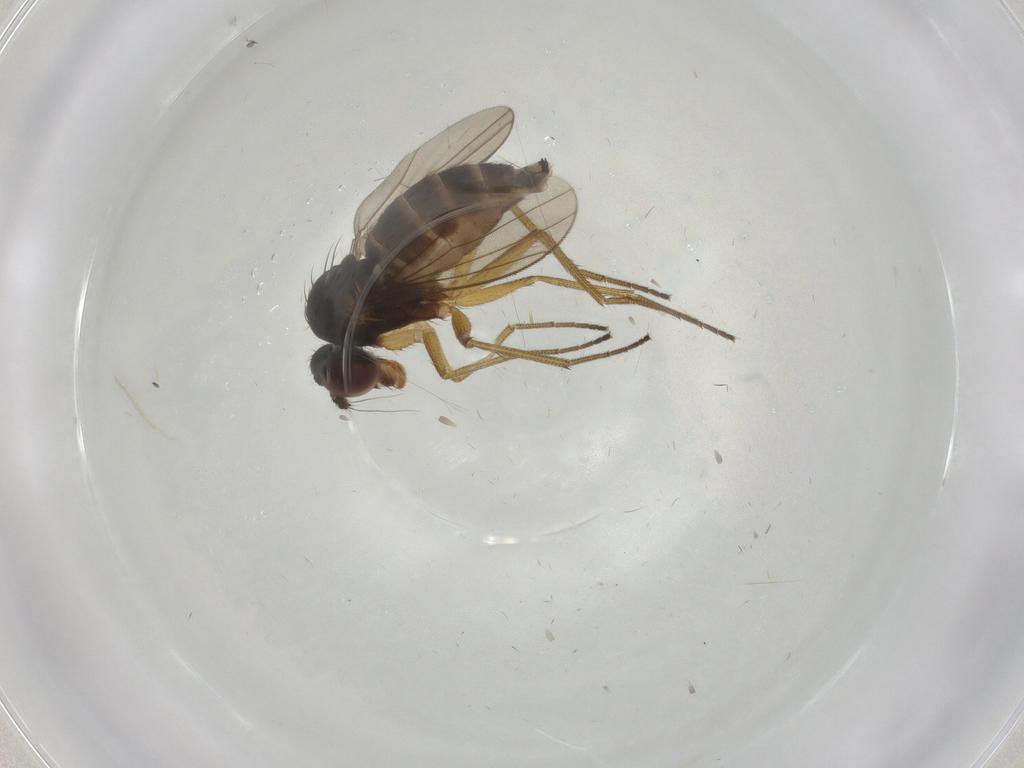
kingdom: Animalia
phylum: Arthropoda
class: Insecta
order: Diptera
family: Dolichopodidae
